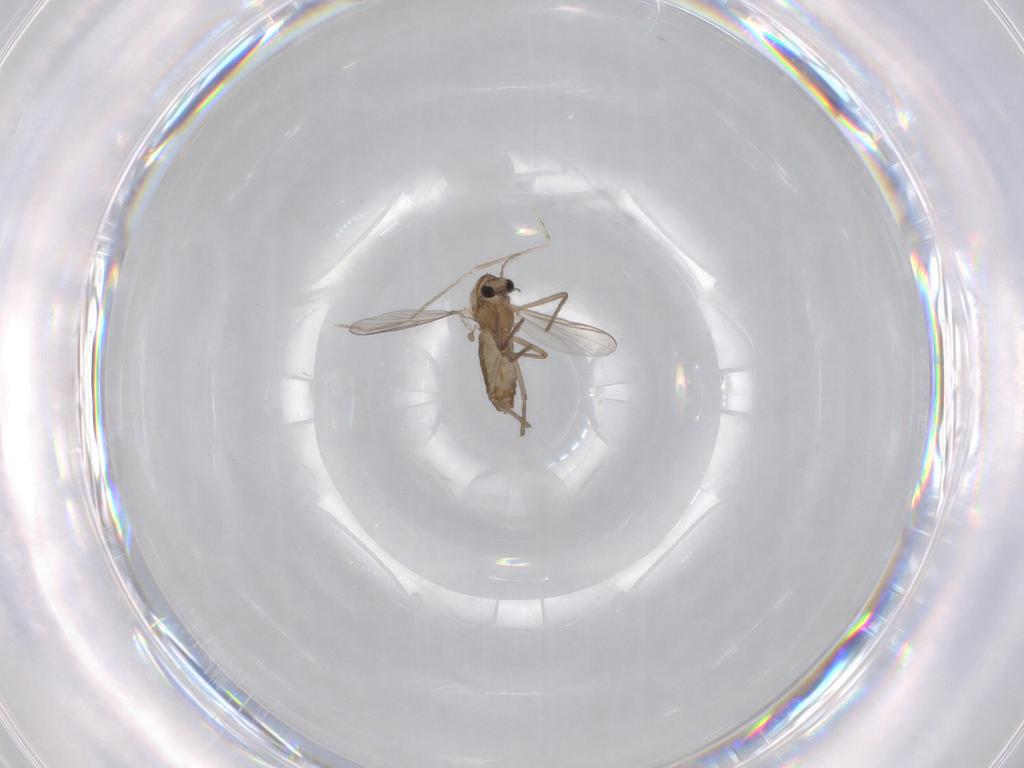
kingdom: Animalia
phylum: Arthropoda
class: Insecta
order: Diptera
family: Chironomidae
